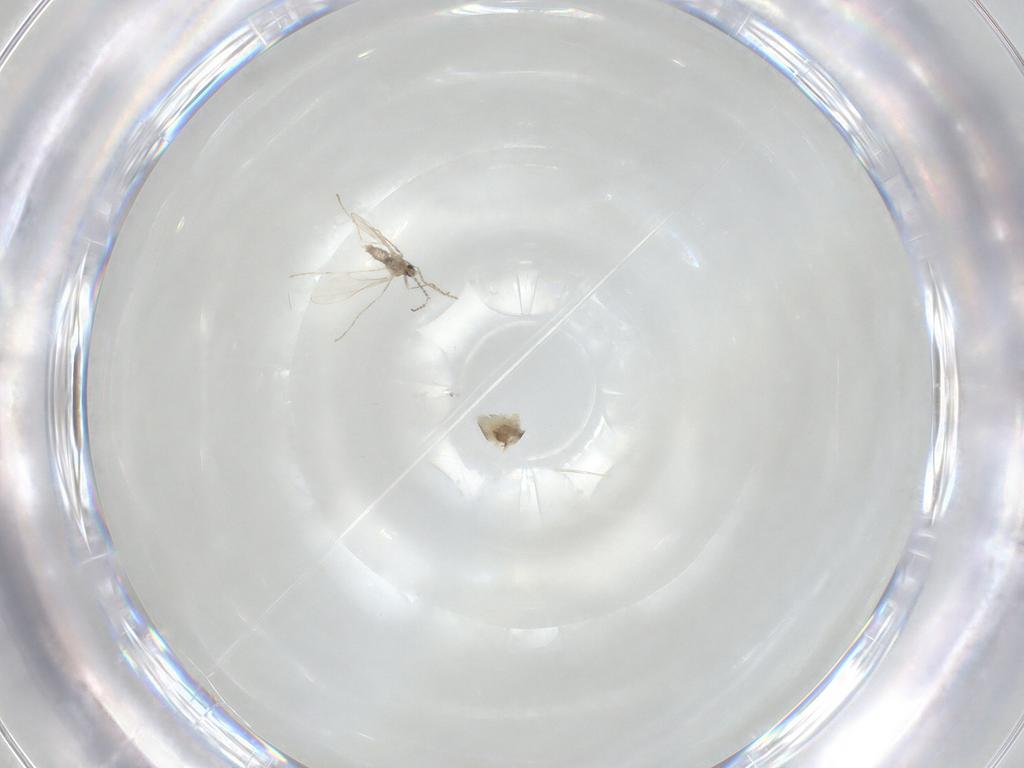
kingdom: Animalia
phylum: Arthropoda
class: Insecta
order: Diptera
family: Cecidomyiidae
